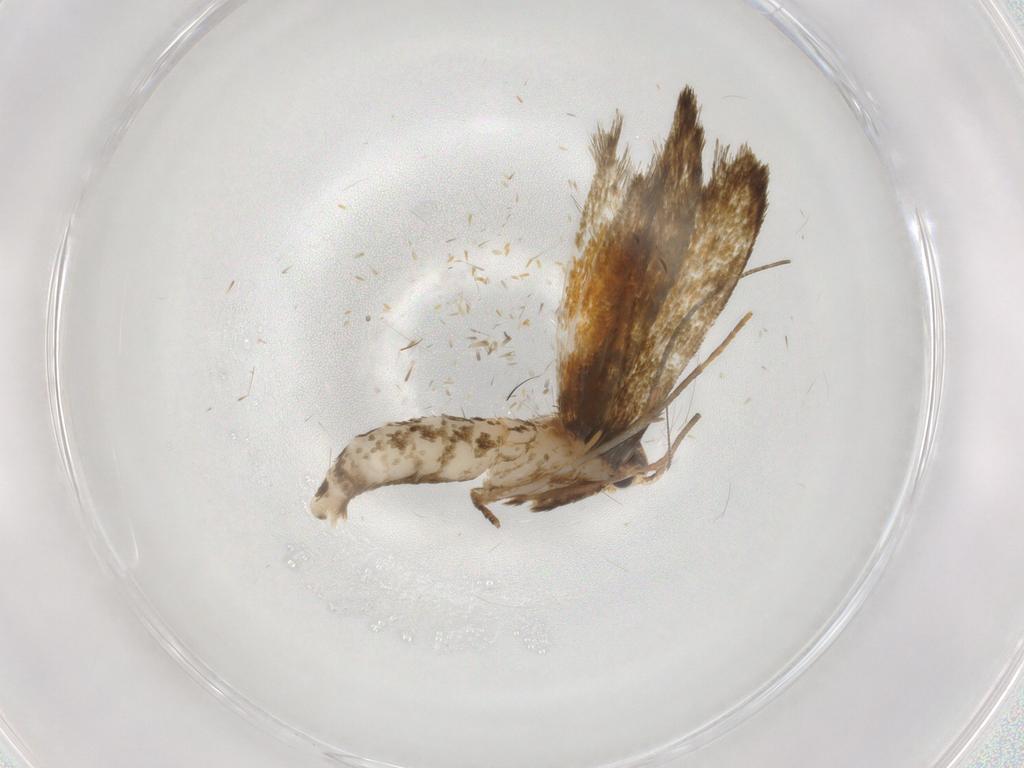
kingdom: Animalia
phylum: Arthropoda
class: Insecta
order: Lepidoptera
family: Tineidae
